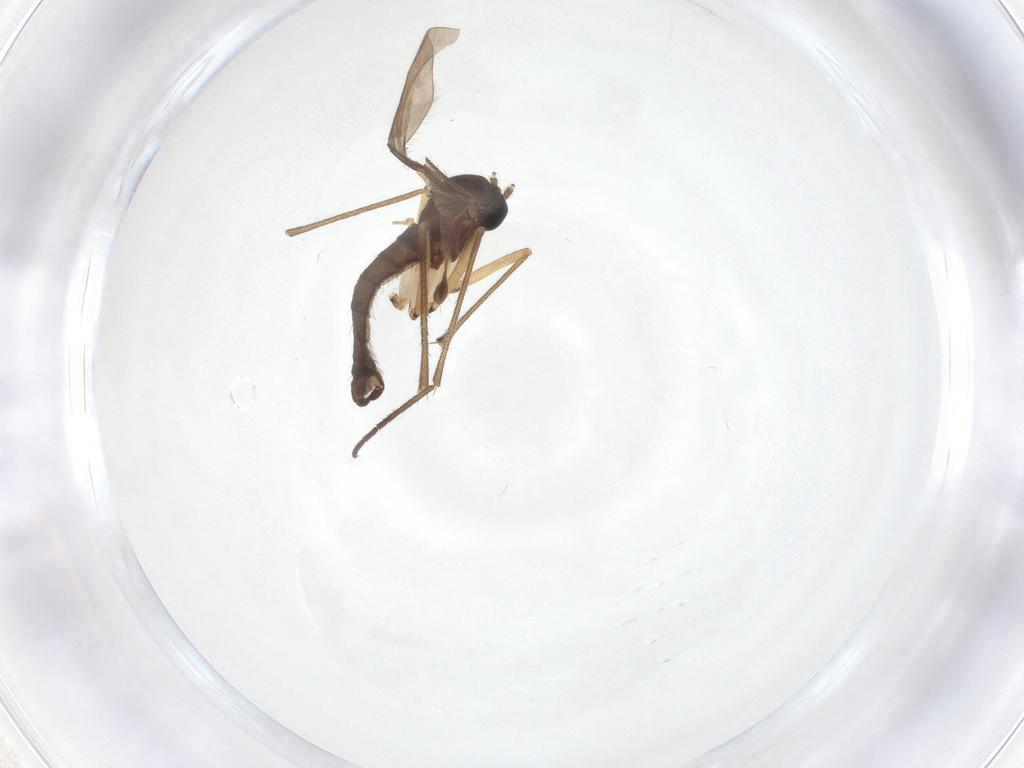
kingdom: Animalia
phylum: Arthropoda
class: Insecta
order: Diptera
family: Sciaridae
